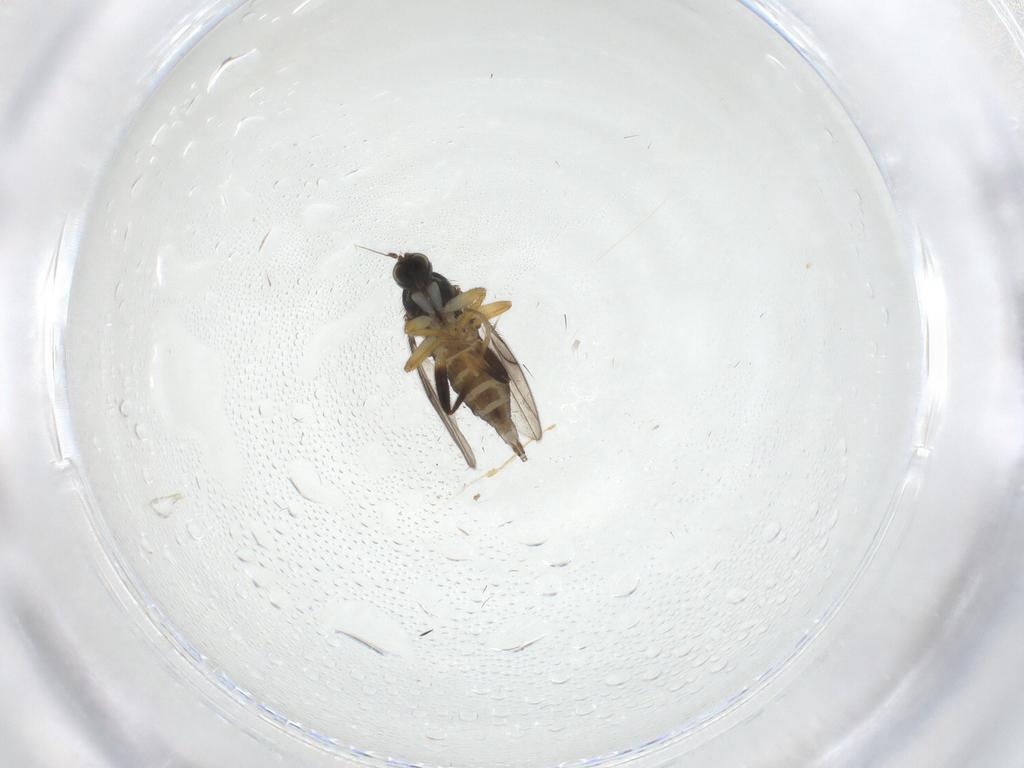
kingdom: Animalia
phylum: Arthropoda
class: Insecta
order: Diptera
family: Hybotidae
